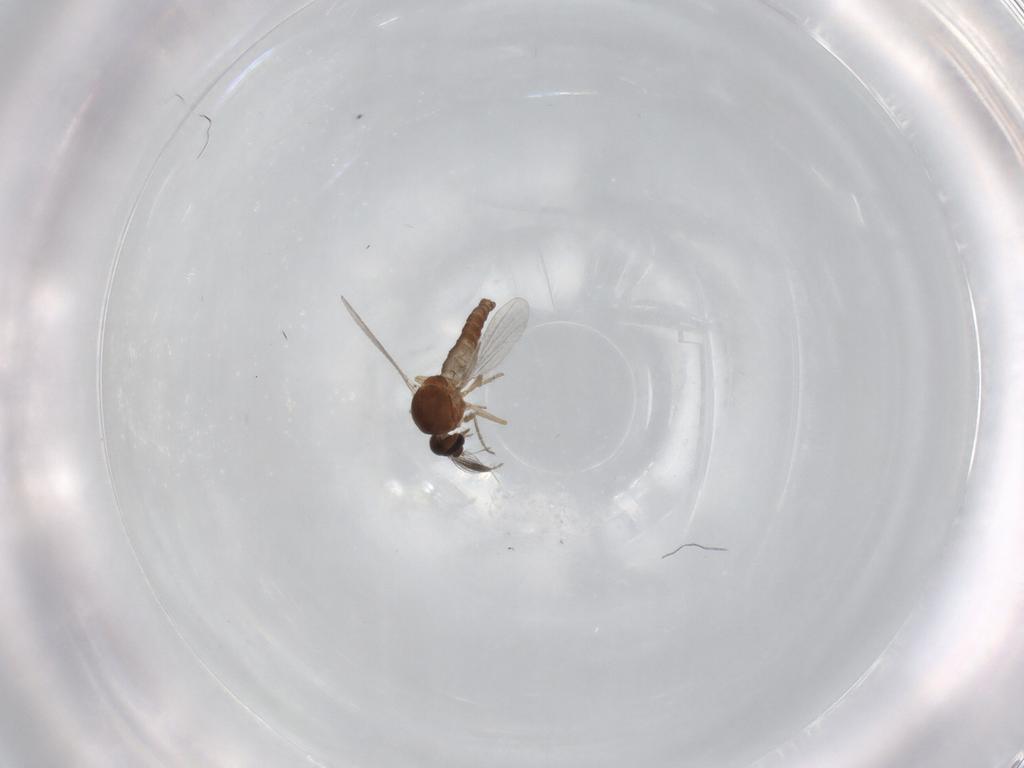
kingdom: Animalia
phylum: Arthropoda
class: Insecta
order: Diptera
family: Ceratopogonidae
